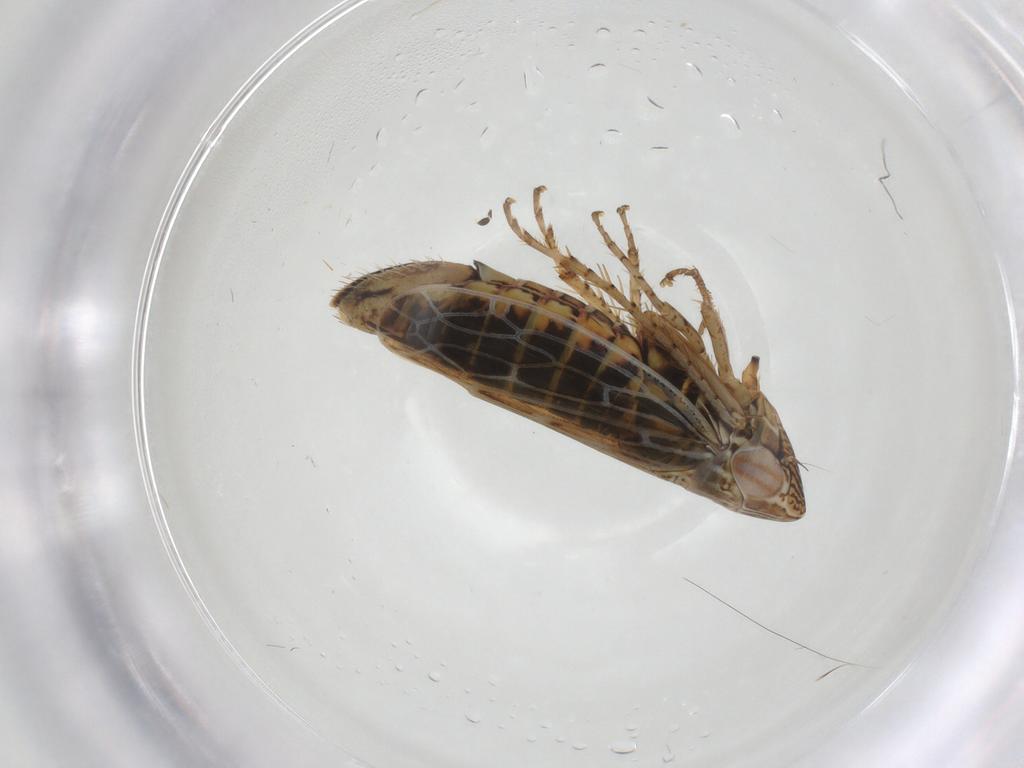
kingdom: Animalia
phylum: Arthropoda
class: Insecta
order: Hemiptera
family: Cicadellidae
